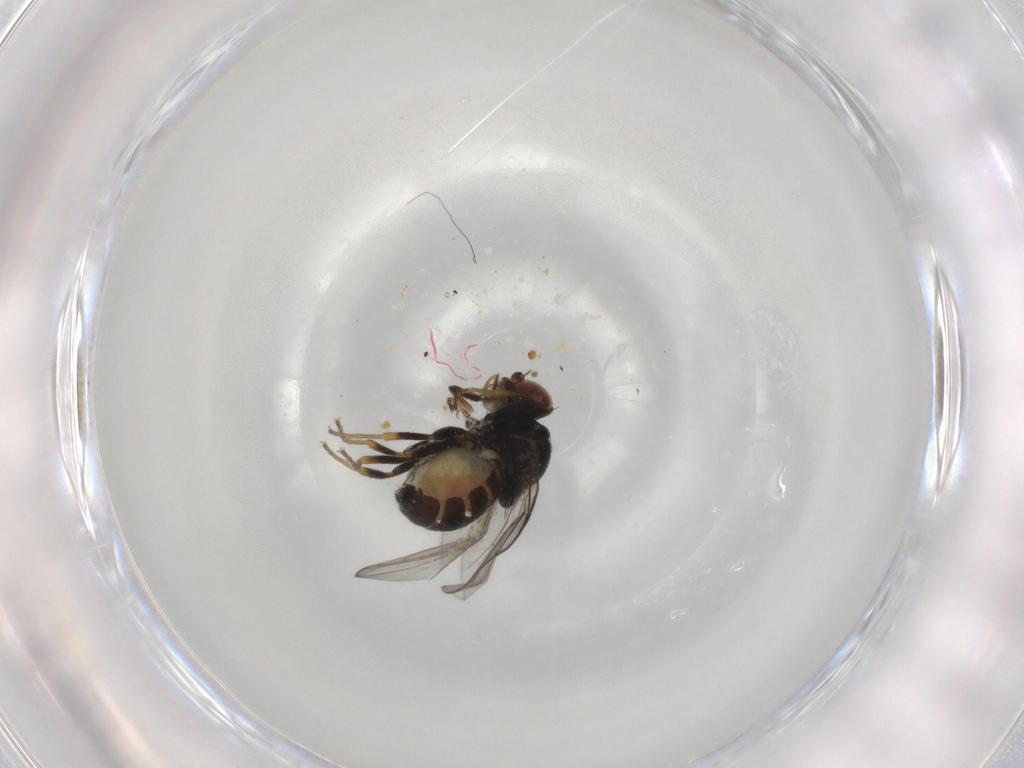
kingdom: Animalia
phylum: Arthropoda
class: Insecta
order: Diptera
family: Chloropidae
